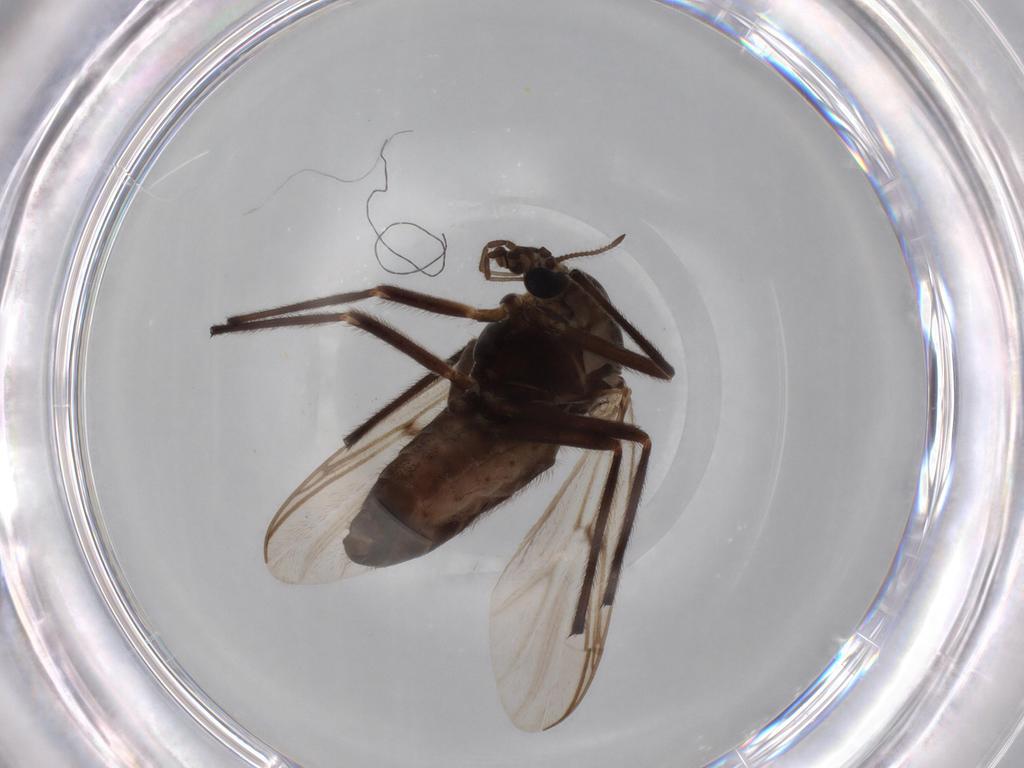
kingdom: Animalia
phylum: Arthropoda
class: Insecta
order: Diptera
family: Chironomidae
